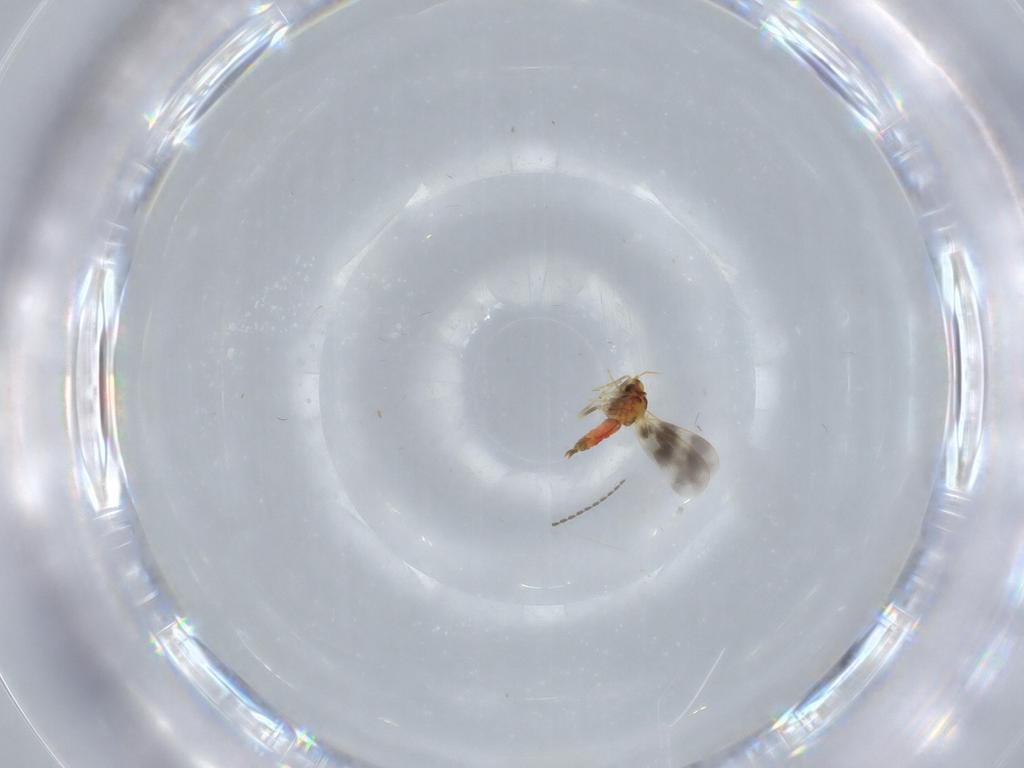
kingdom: Animalia
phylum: Arthropoda
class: Insecta
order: Hemiptera
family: Aleyrodidae
